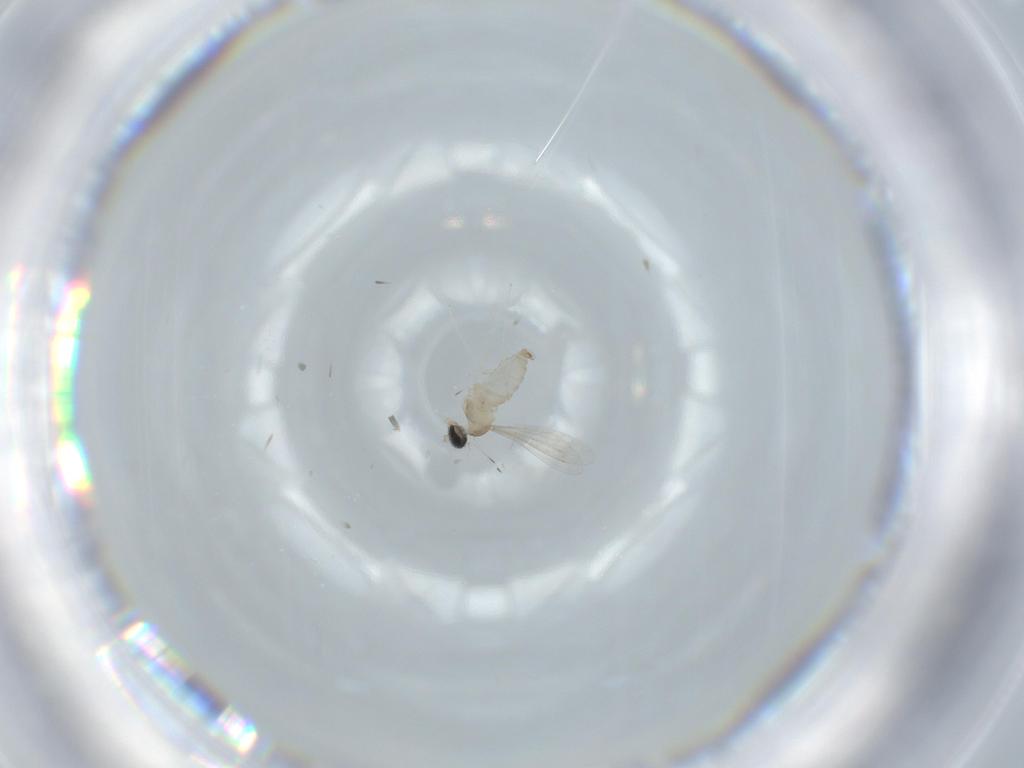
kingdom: Animalia
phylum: Arthropoda
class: Insecta
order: Diptera
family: Cecidomyiidae
